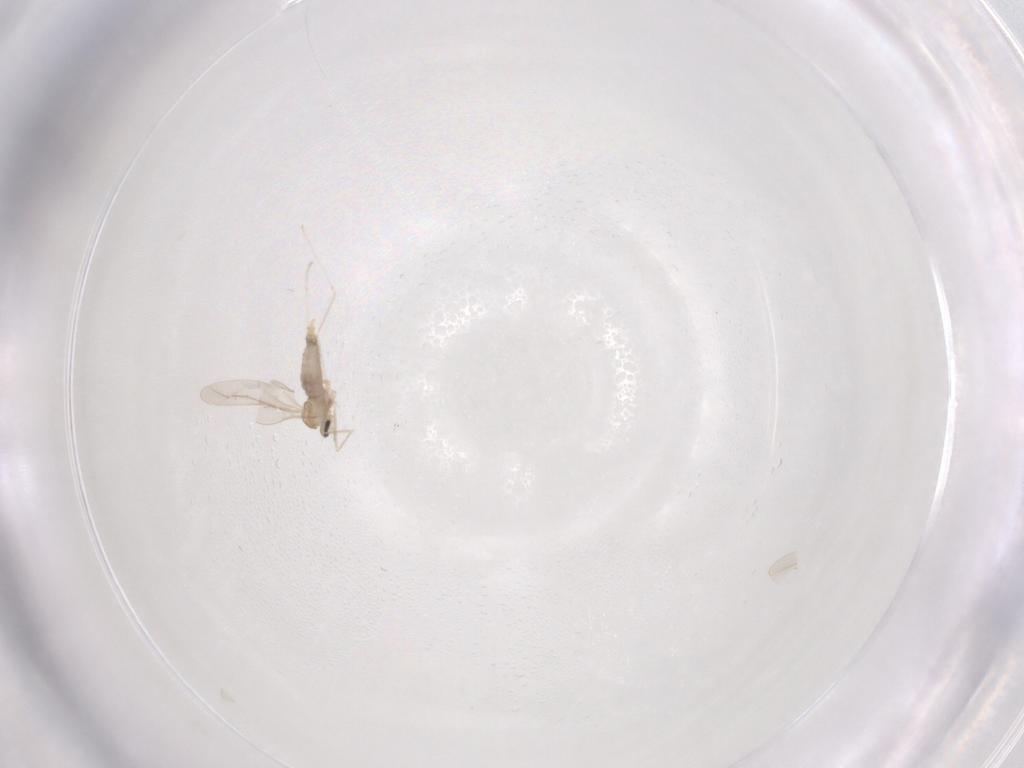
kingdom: Animalia
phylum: Arthropoda
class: Insecta
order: Diptera
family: Cecidomyiidae
